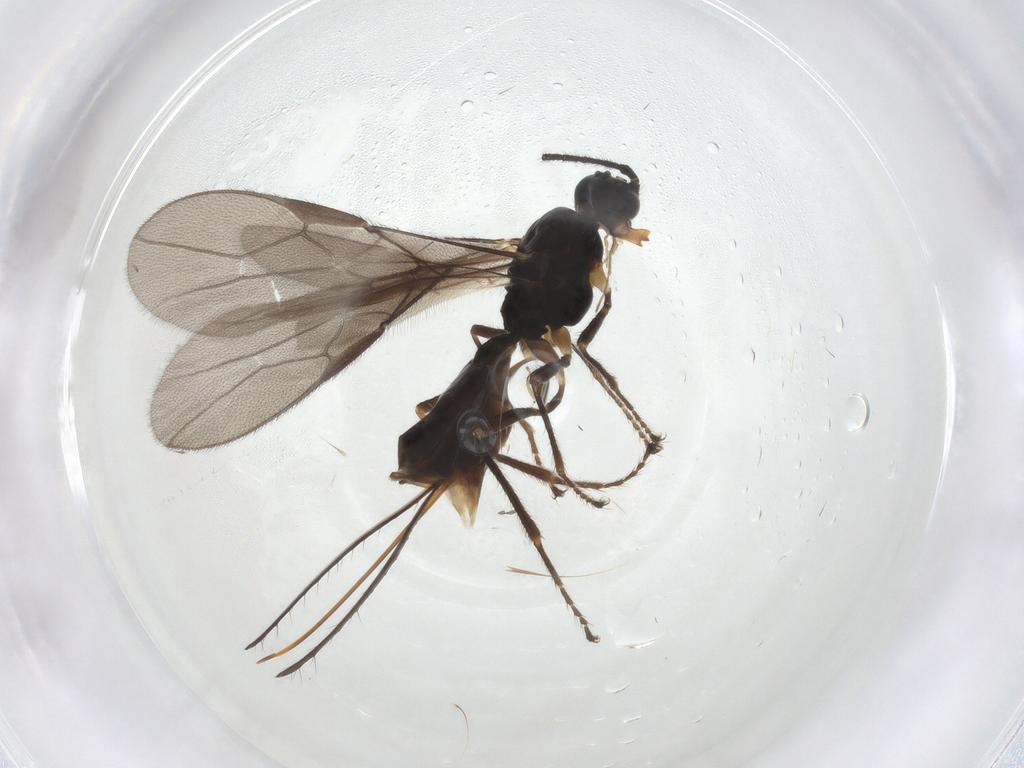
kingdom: Animalia
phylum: Arthropoda
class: Insecta
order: Hymenoptera
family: Braconidae
